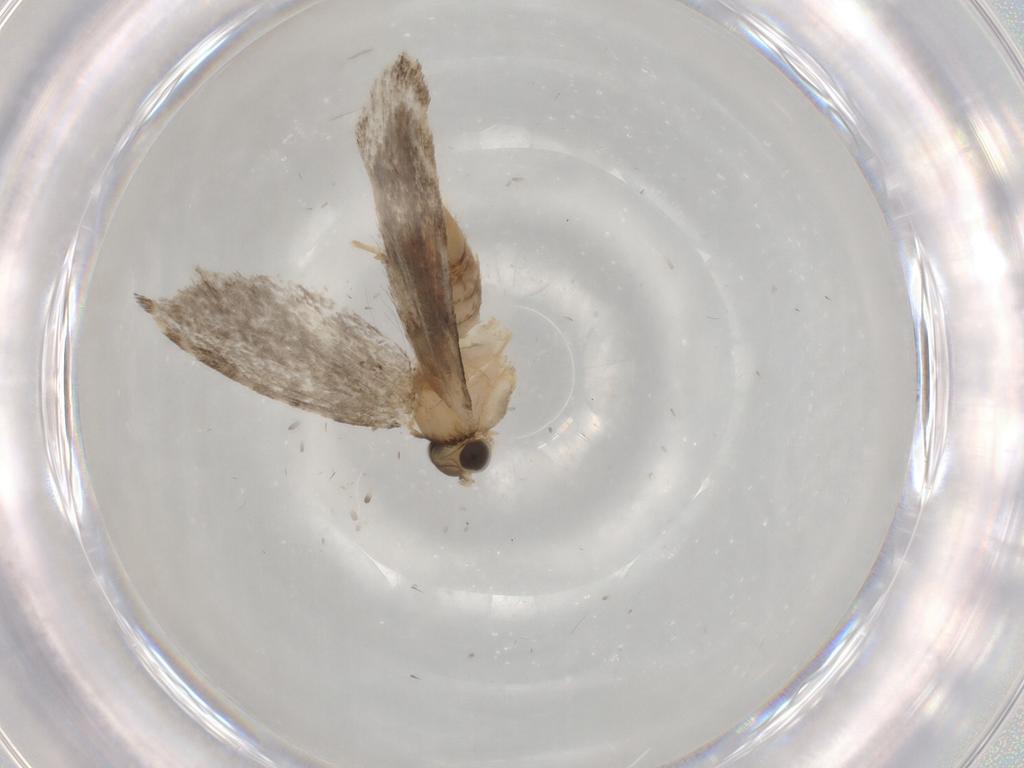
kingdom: Animalia
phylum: Arthropoda
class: Insecta
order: Lepidoptera
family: Tineidae
